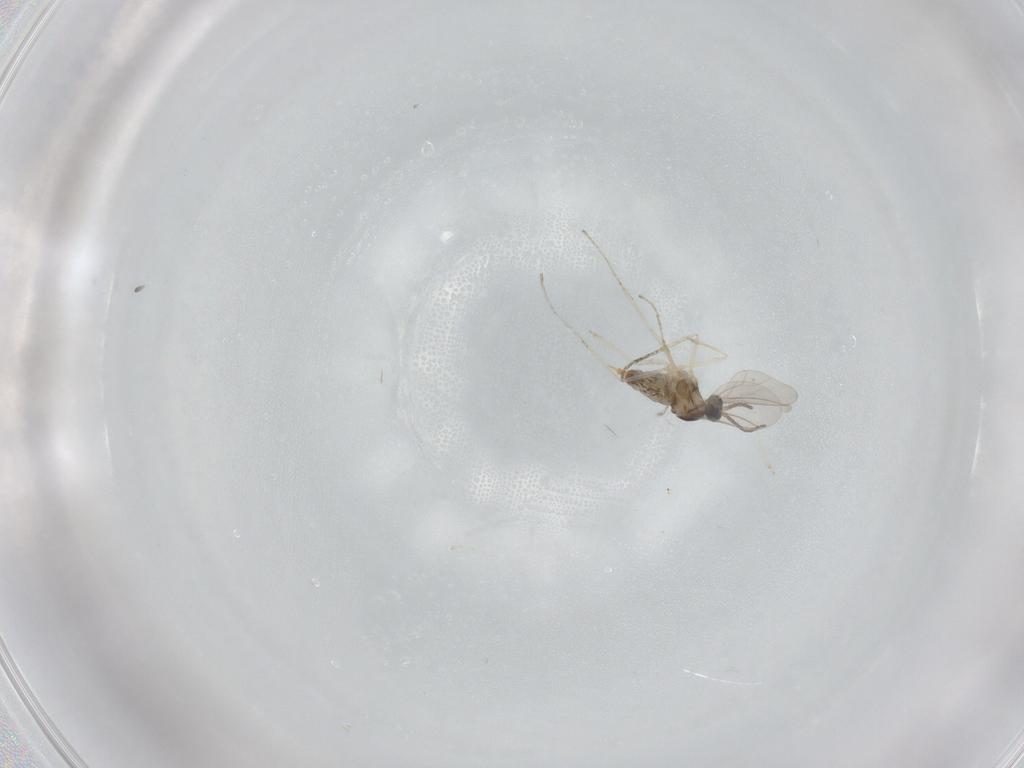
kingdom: Animalia
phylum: Arthropoda
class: Insecta
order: Diptera
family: Cecidomyiidae
